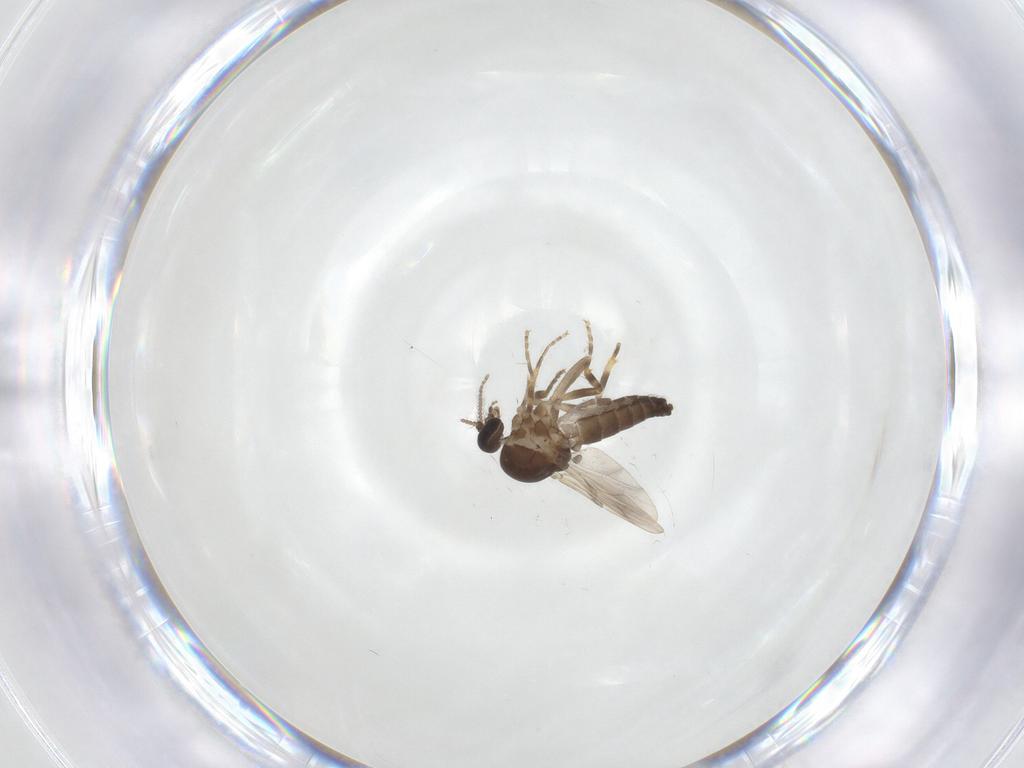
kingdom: Animalia
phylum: Arthropoda
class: Insecta
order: Diptera
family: Ceratopogonidae
